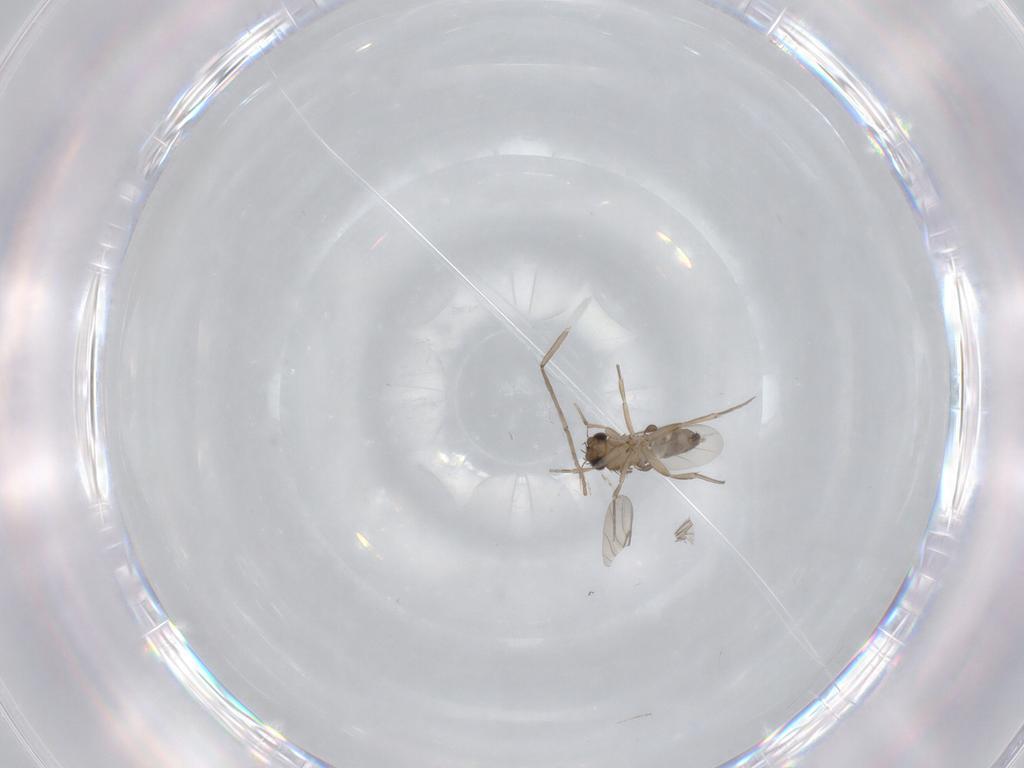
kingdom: Animalia
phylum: Arthropoda
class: Insecta
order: Diptera
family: Phoridae
